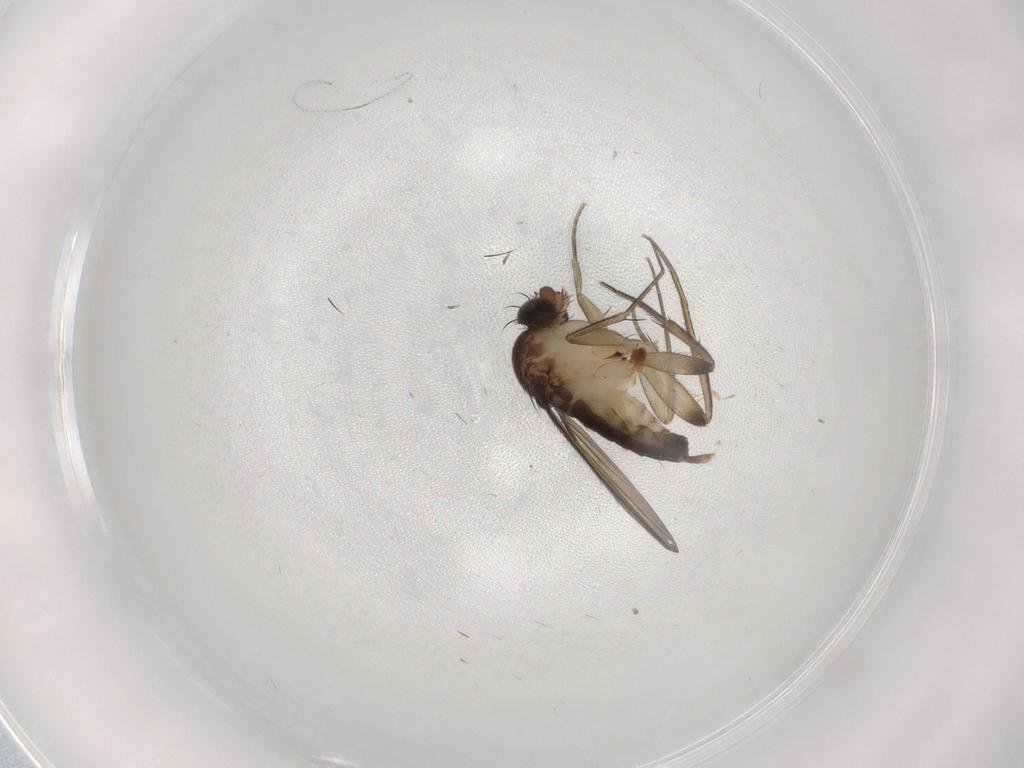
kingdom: Animalia
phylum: Arthropoda
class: Insecta
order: Diptera
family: Phoridae
